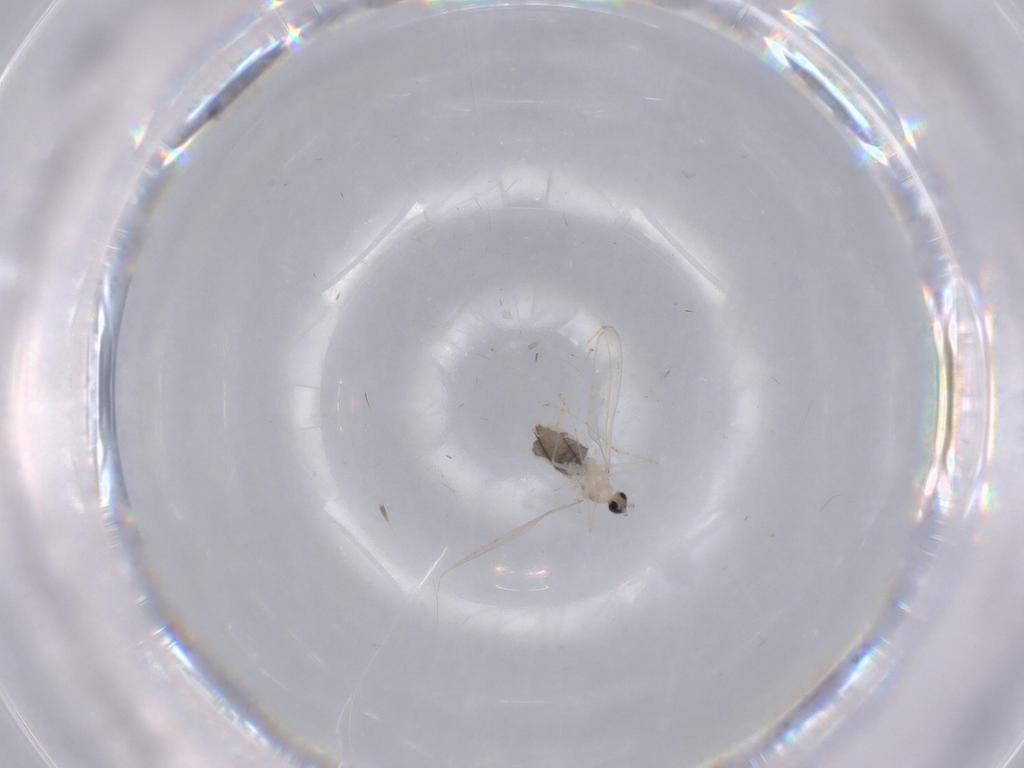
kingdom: Animalia
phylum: Arthropoda
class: Insecta
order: Diptera
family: Cecidomyiidae
